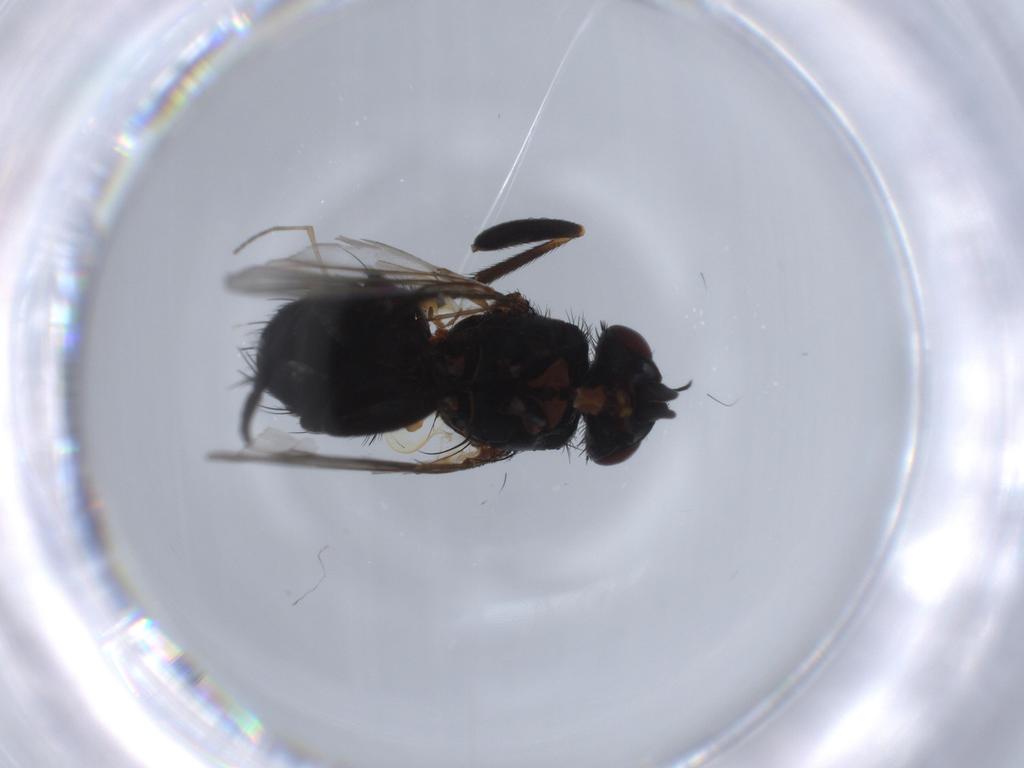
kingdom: Animalia
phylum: Arthropoda
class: Insecta
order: Diptera
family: Tachinidae
